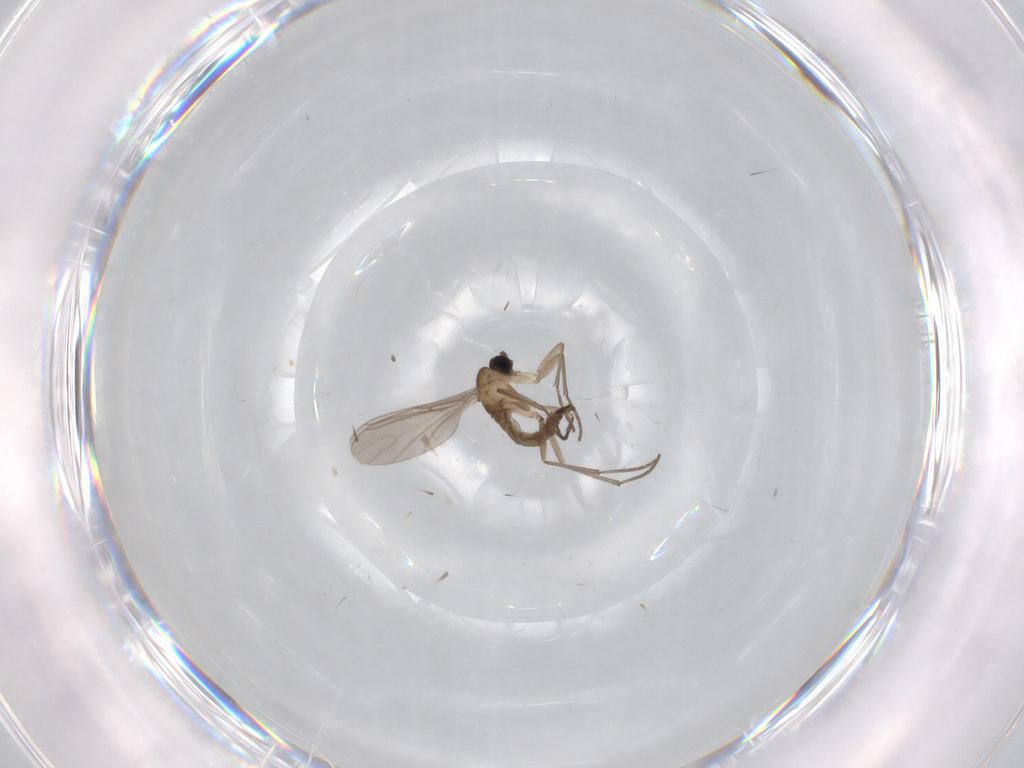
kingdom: Animalia
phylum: Arthropoda
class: Insecta
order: Diptera
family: Sciaridae
